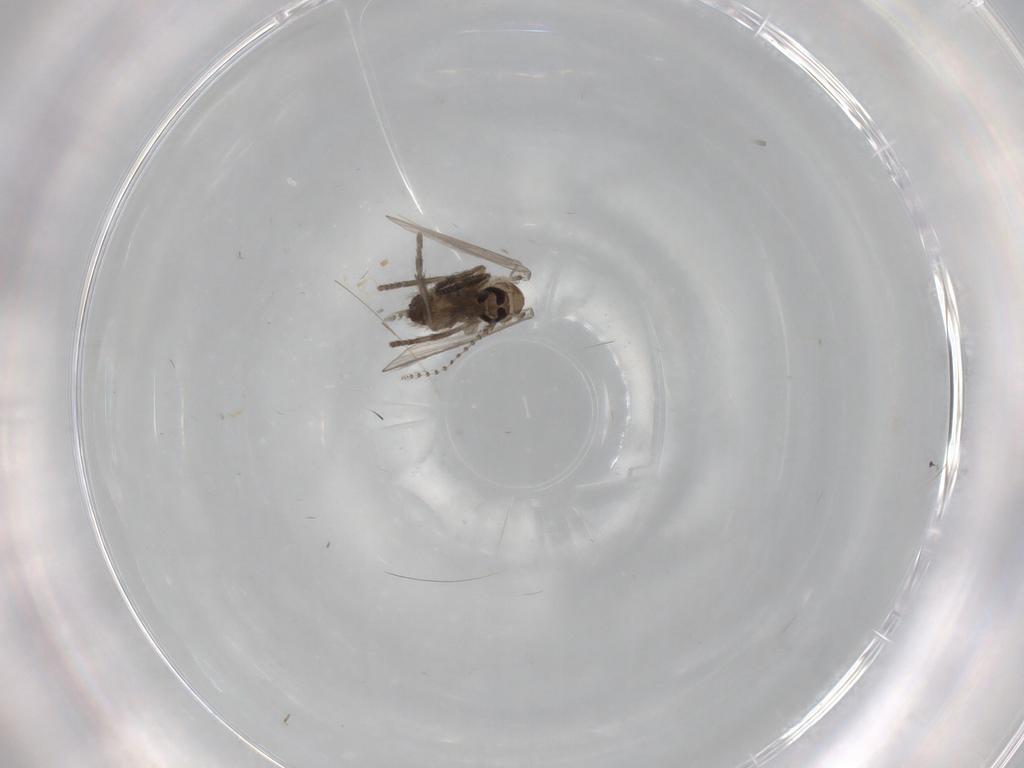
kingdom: Animalia
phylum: Arthropoda
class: Insecta
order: Diptera
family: Psychodidae
